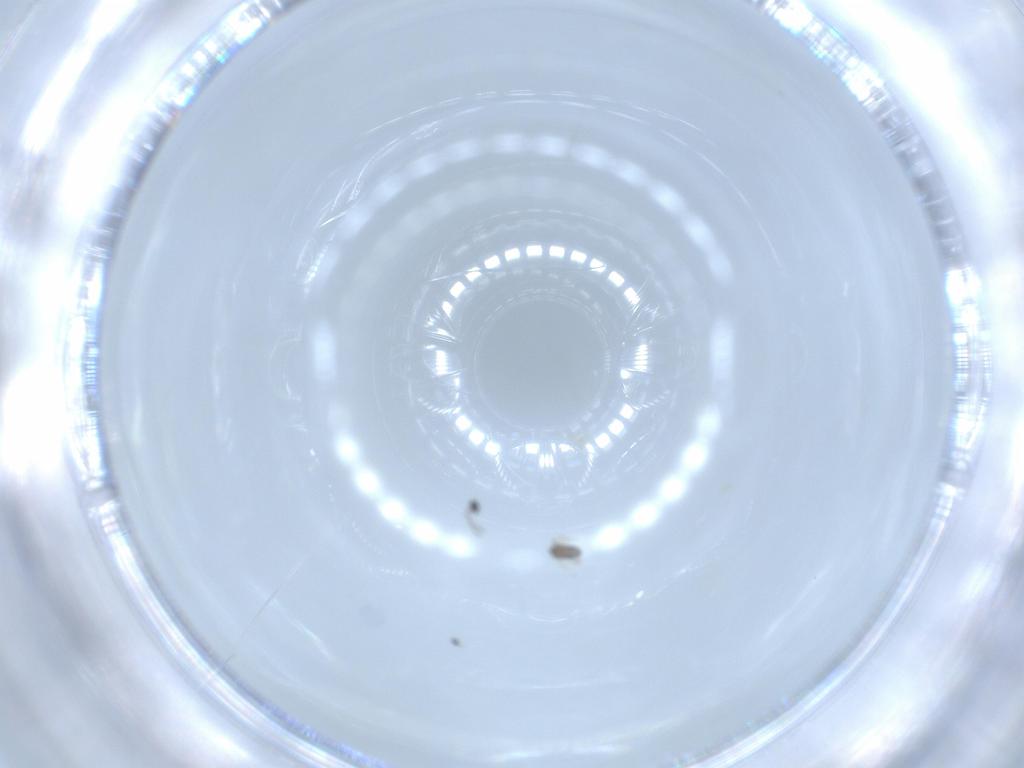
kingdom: Animalia
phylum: Arthropoda
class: Insecta
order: Hymenoptera
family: Mymaridae
